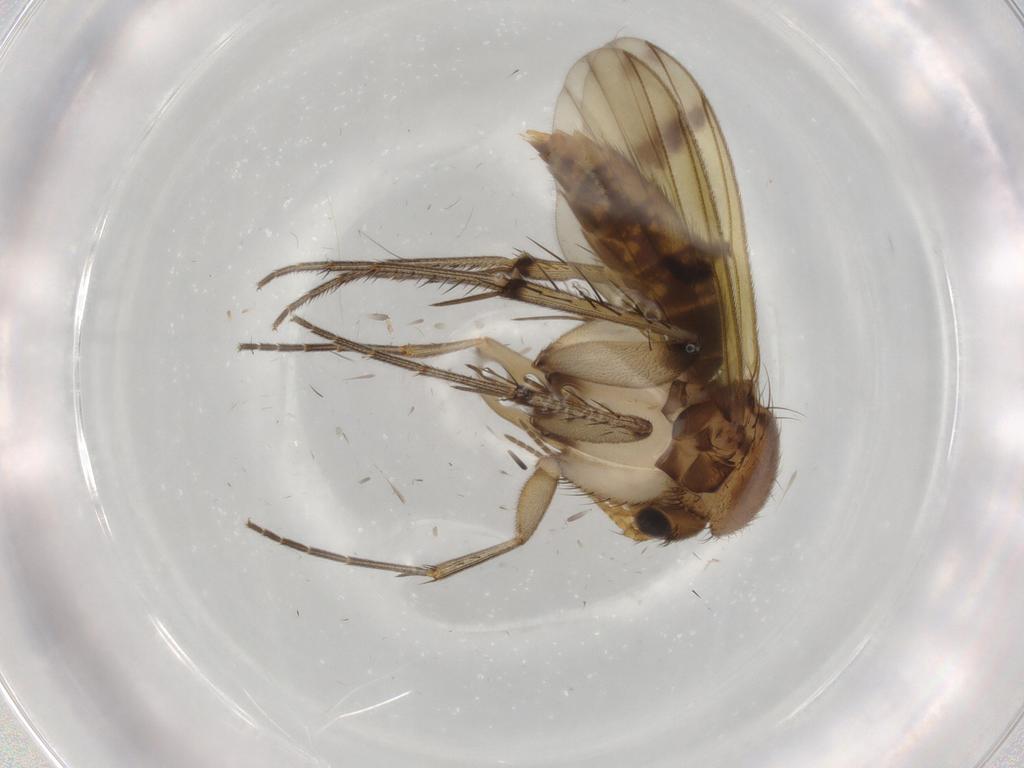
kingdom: Animalia
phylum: Arthropoda
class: Insecta
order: Diptera
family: Mycetophilidae
